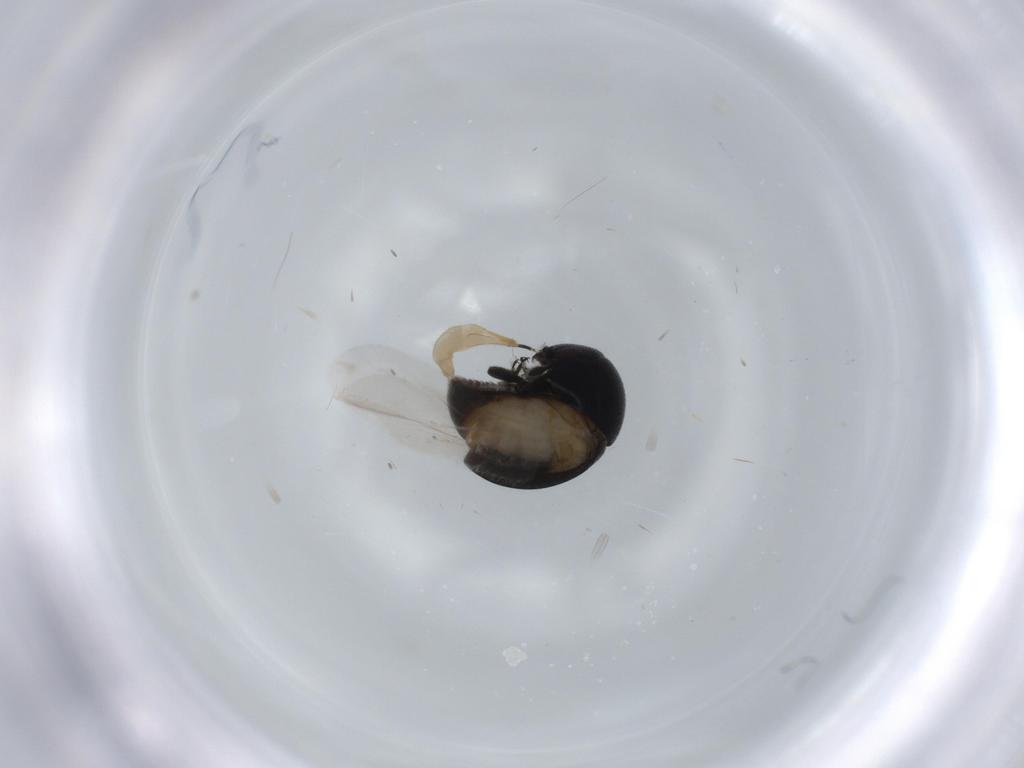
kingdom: Animalia
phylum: Arthropoda
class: Insecta
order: Coleoptera
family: Cybocephalidae
